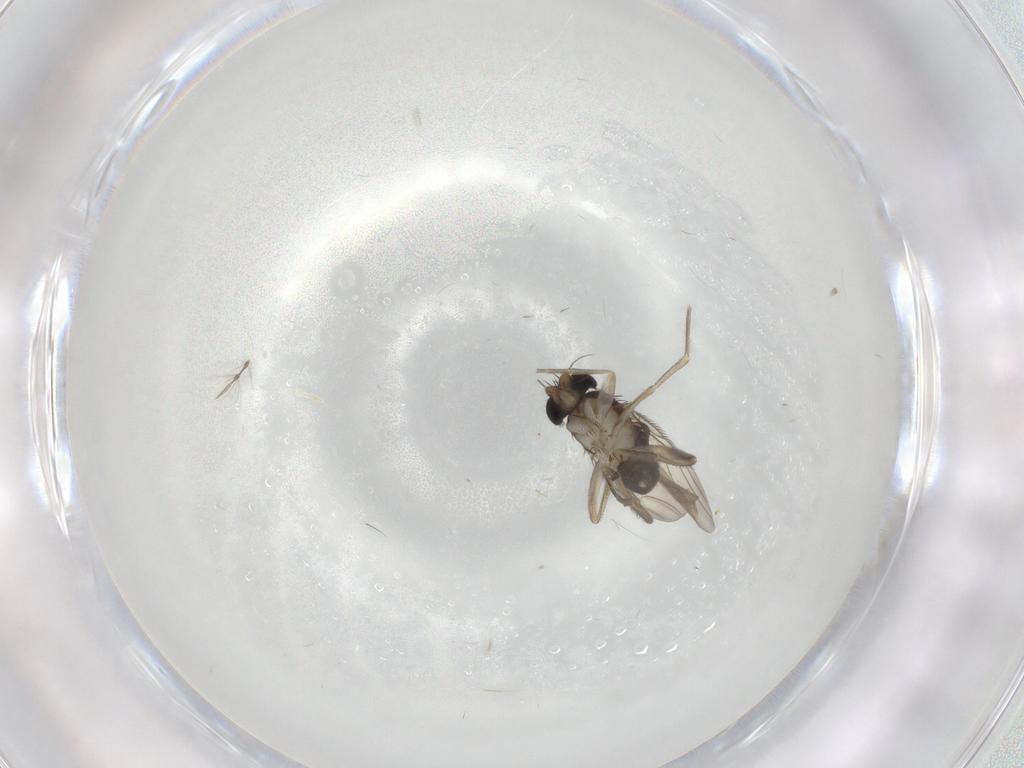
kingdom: Animalia
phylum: Arthropoda
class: Insecta
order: Diptera
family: Phoridae
